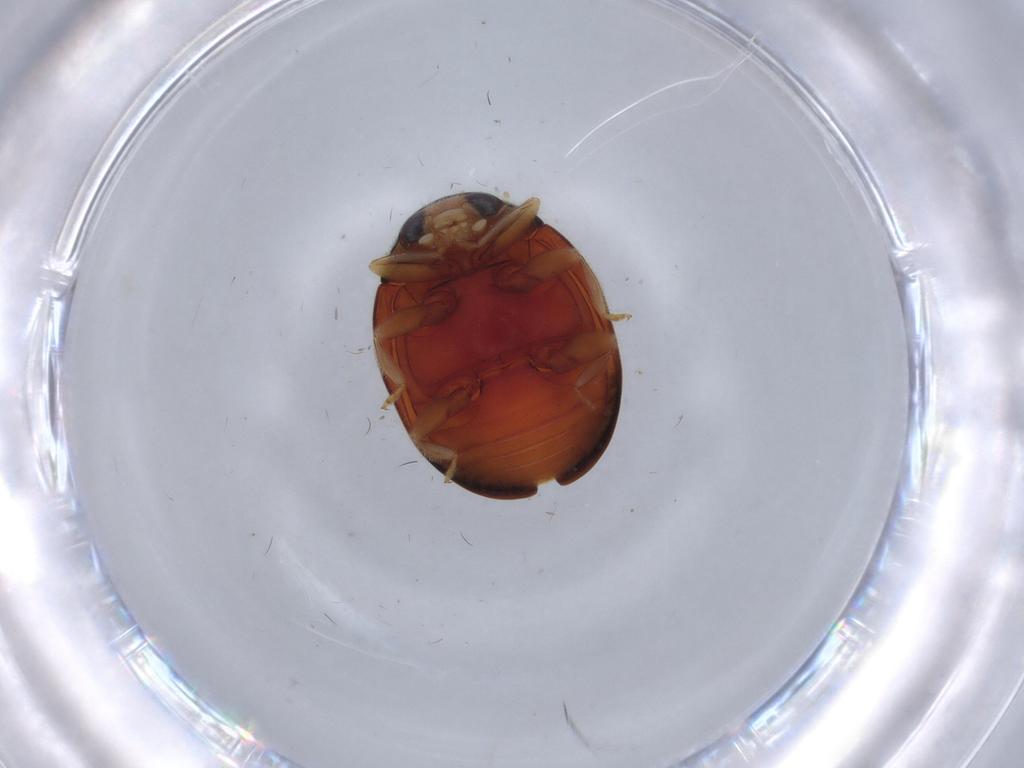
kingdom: Animalia
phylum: Arthropoda
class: Insecta
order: Coleoptera
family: Coccinellidae
